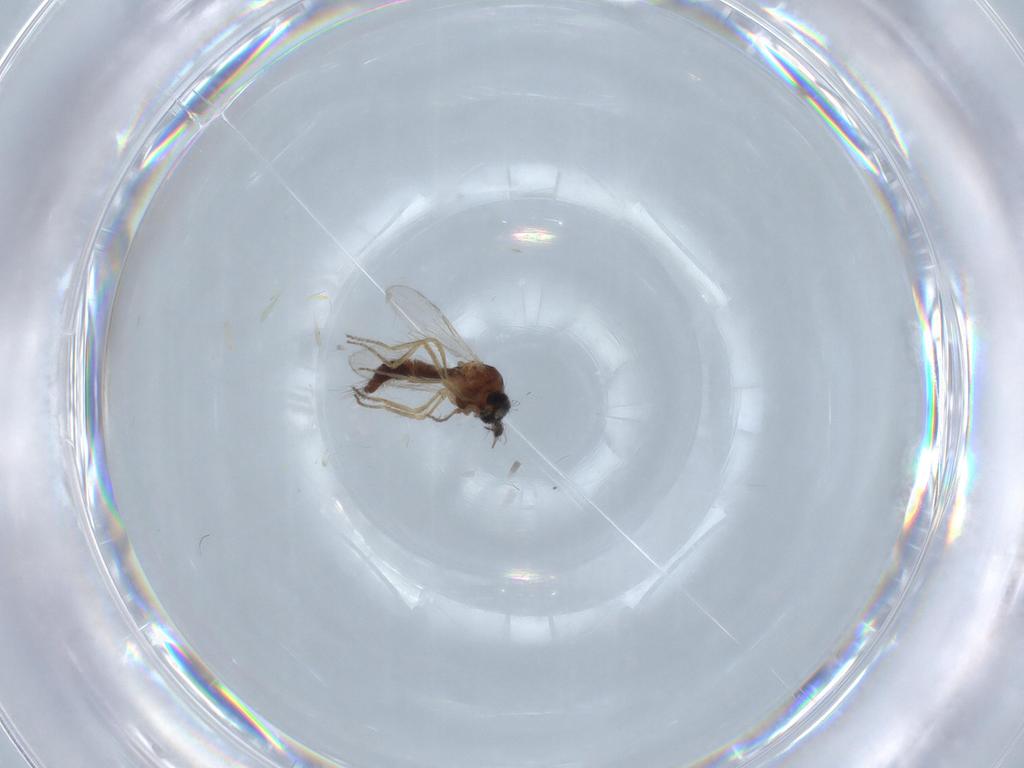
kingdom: Animalia
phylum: Arthropoda
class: Insecta
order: Diptera
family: Ceratopogonidae
